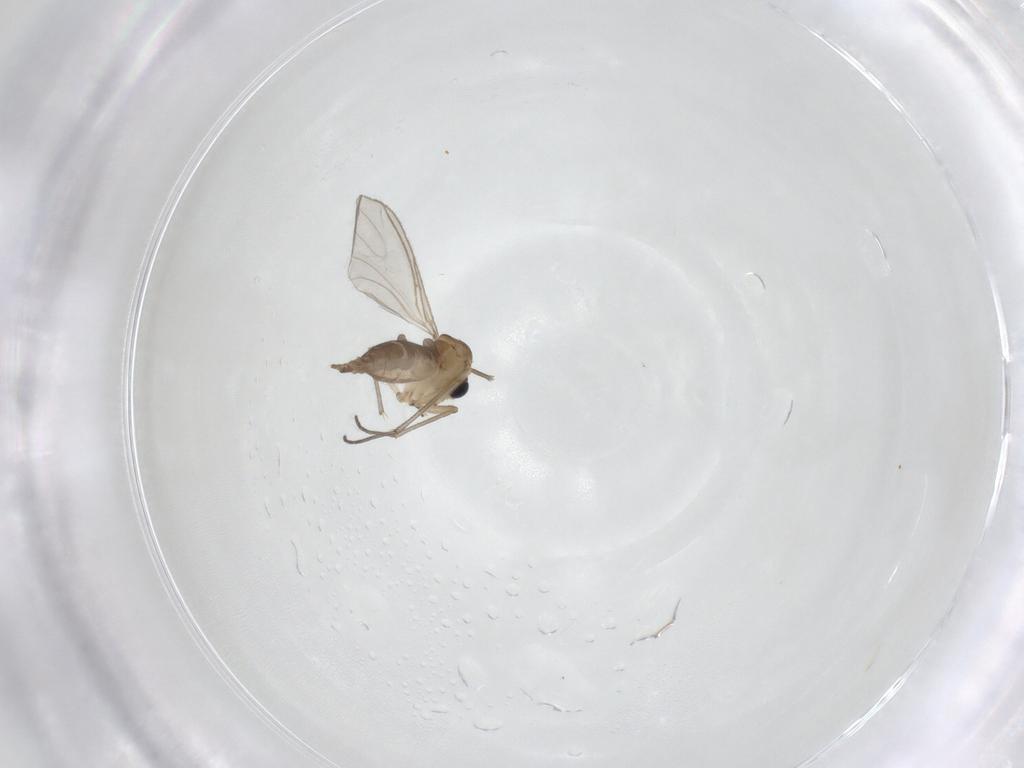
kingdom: Animalia
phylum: Arthropoda
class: Insecta
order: Diptera
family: Sciaridae
